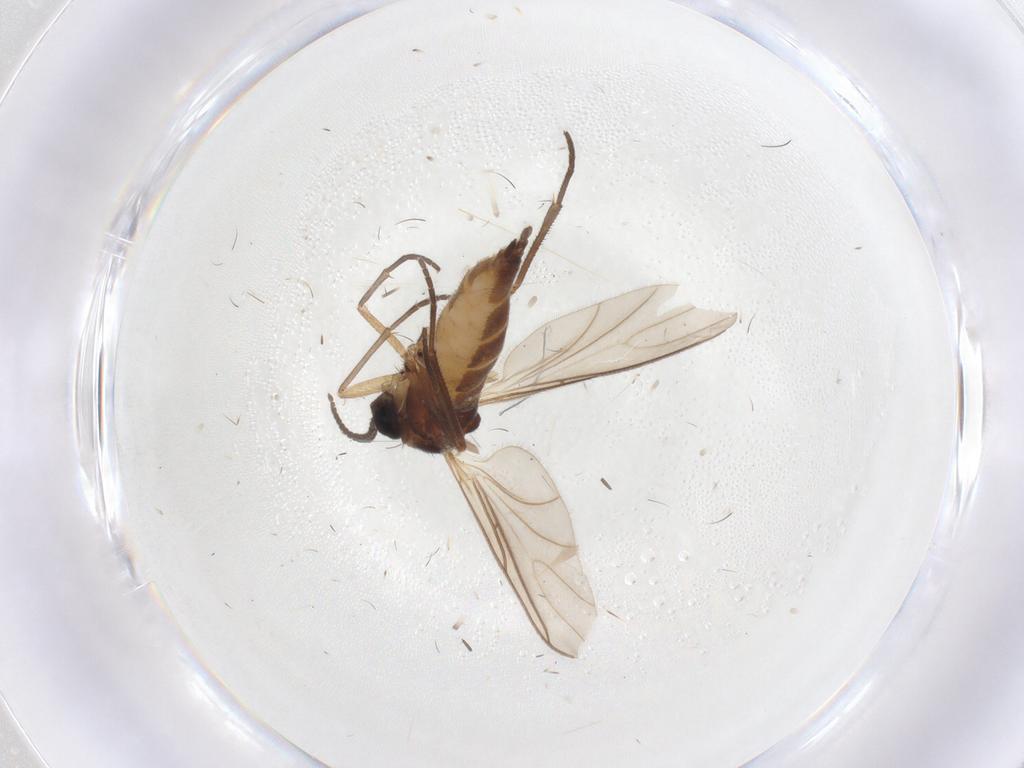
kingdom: Animalia
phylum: Arthropoda
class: Insecta
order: Diptera
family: Sciaridae
